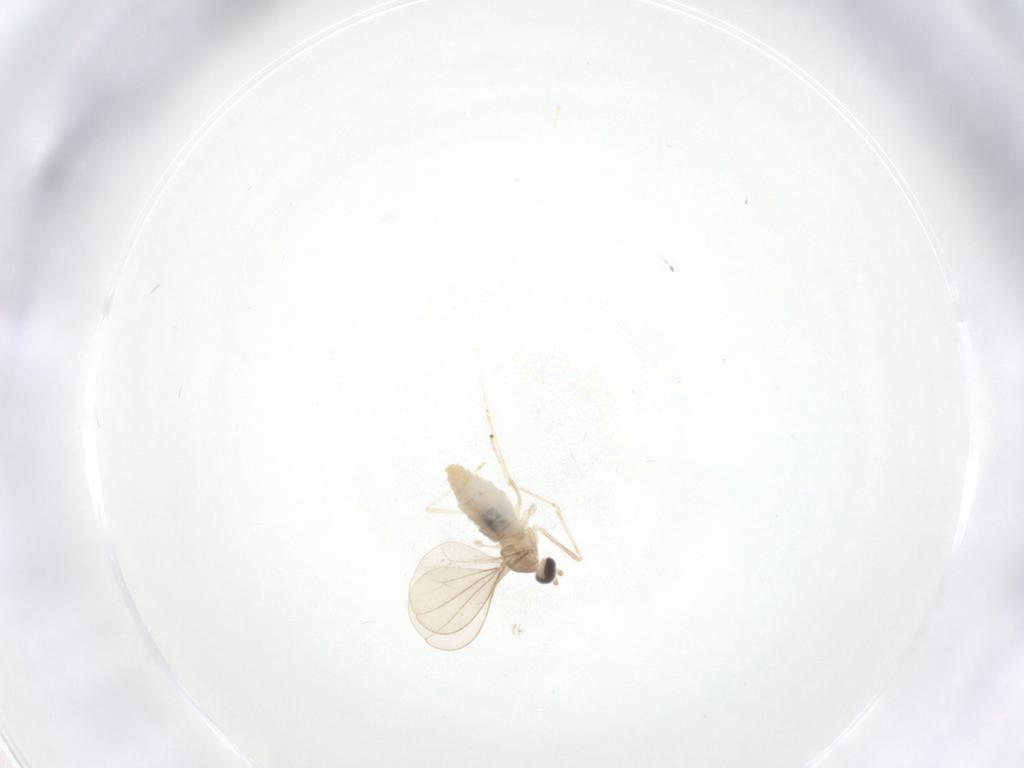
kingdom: Animalia
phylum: Arthropoda
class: Insecta
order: Diptera
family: Cecidomyiidae
